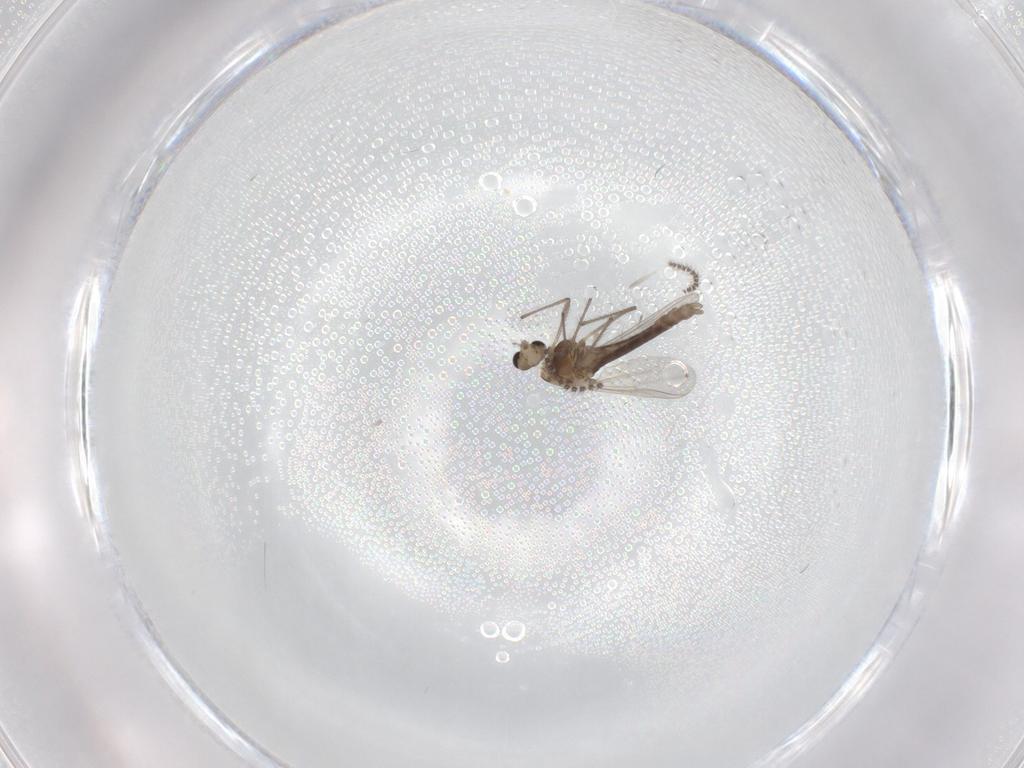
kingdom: Animalia
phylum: Arthropoda
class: Insecta
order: Diptera
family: Chironomidae
